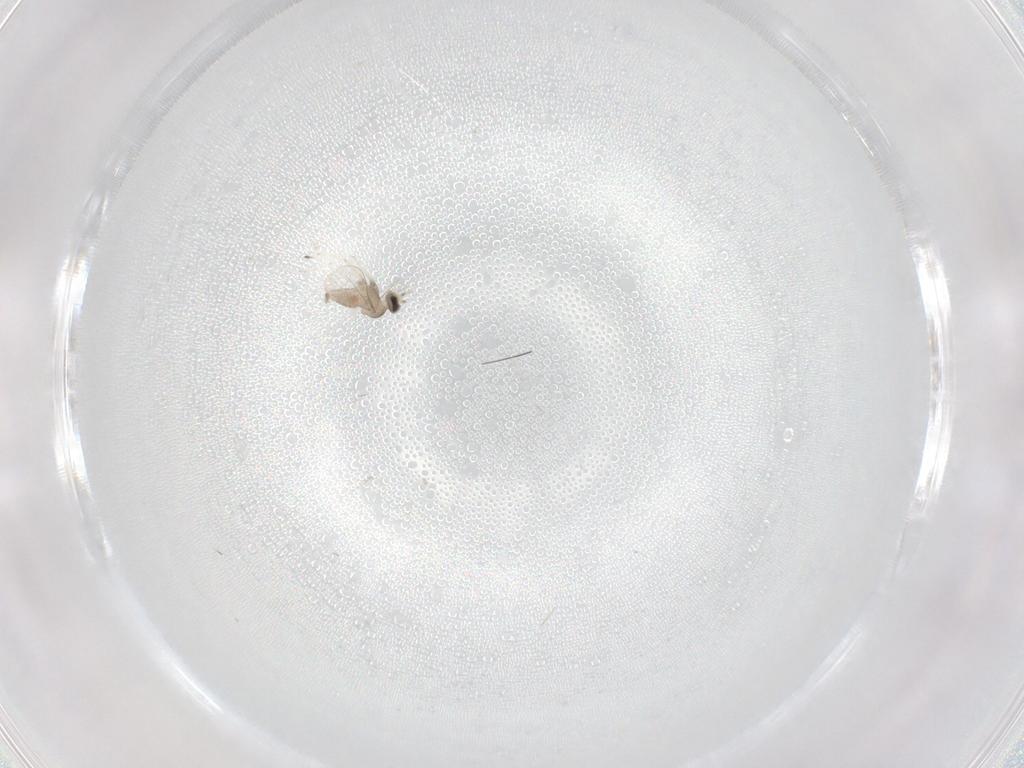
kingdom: Animalia
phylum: Arthropoda
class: Insecta
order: Diptera
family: Cecidomyiidae
